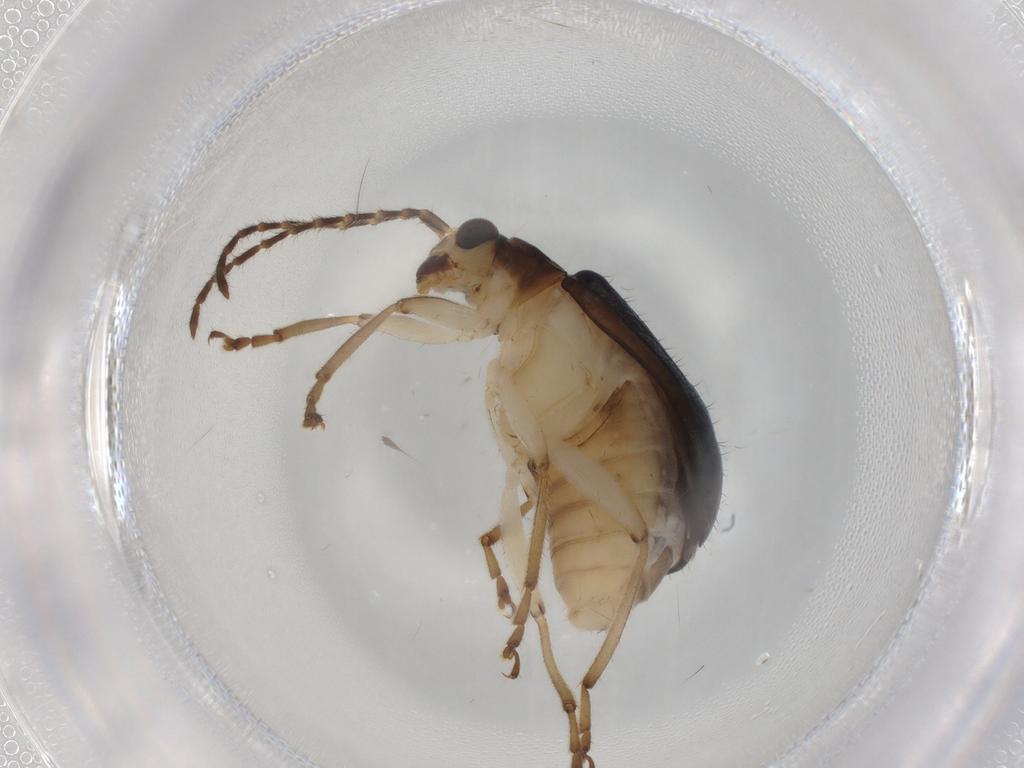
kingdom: Animalia
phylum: Arthropoda
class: Insecta
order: Coleoptera
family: Chrysomelidae
